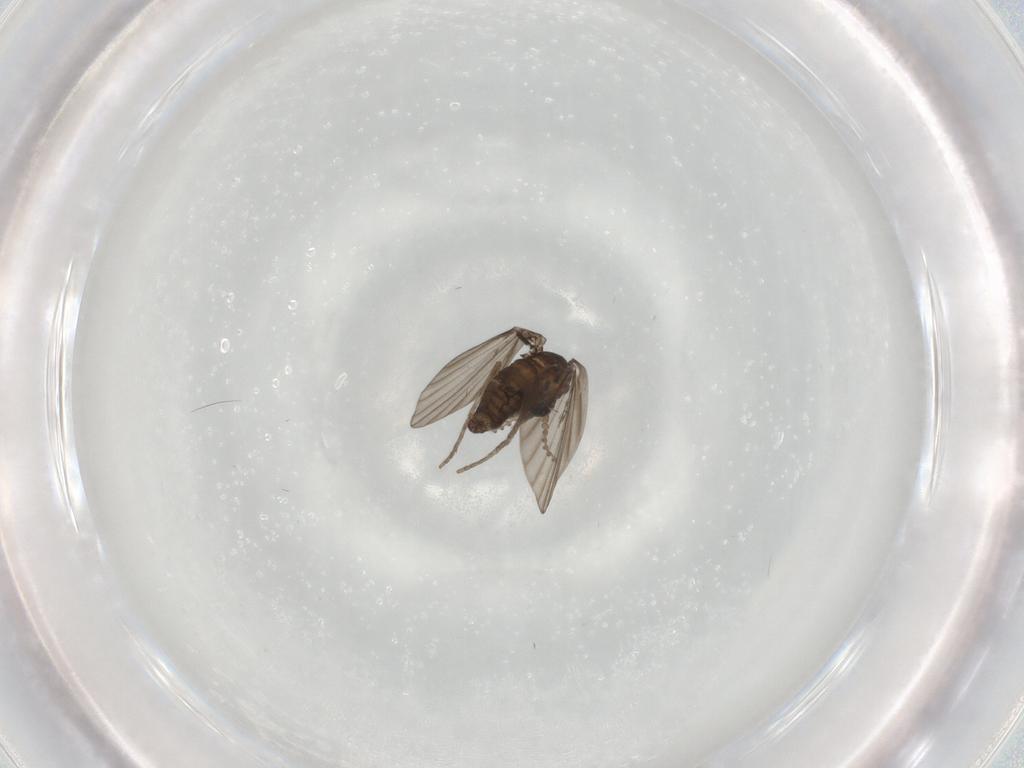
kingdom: Animalia
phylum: Arthropoda
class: Insecta
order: Diptera
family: Psychodidae
